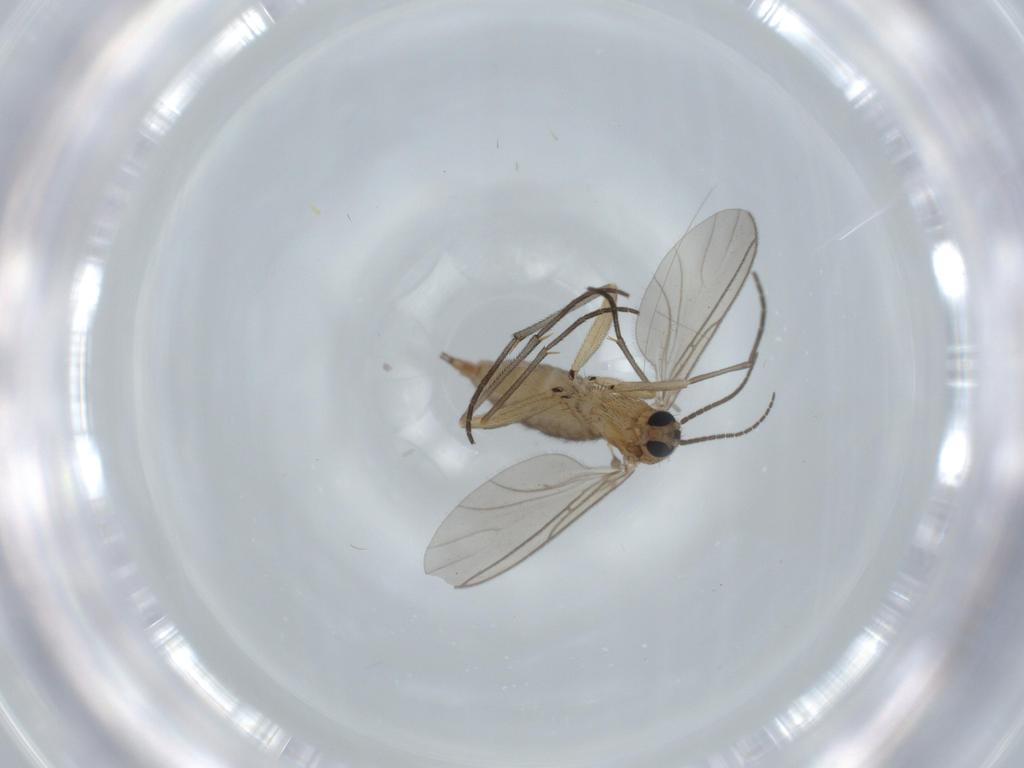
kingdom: Animalia
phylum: Arthropoda
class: Insecta
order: Diptera
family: Sciaridae
